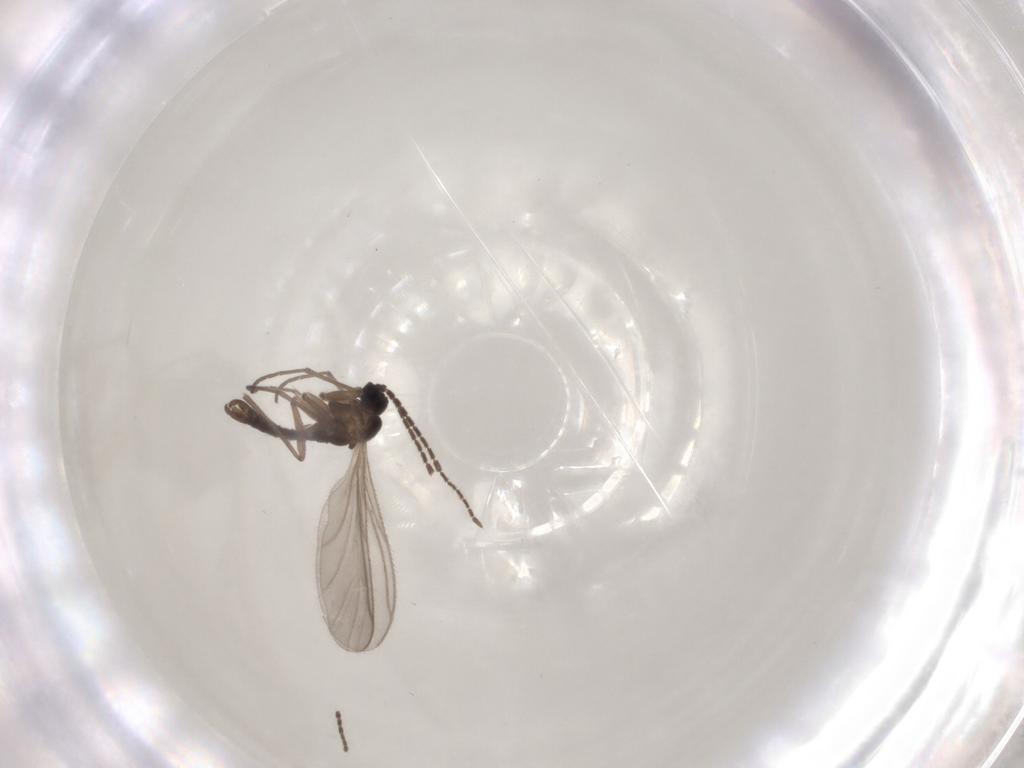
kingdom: Animalia
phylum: Arthropoda
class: Insecta
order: Diptera
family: Sciaridae
